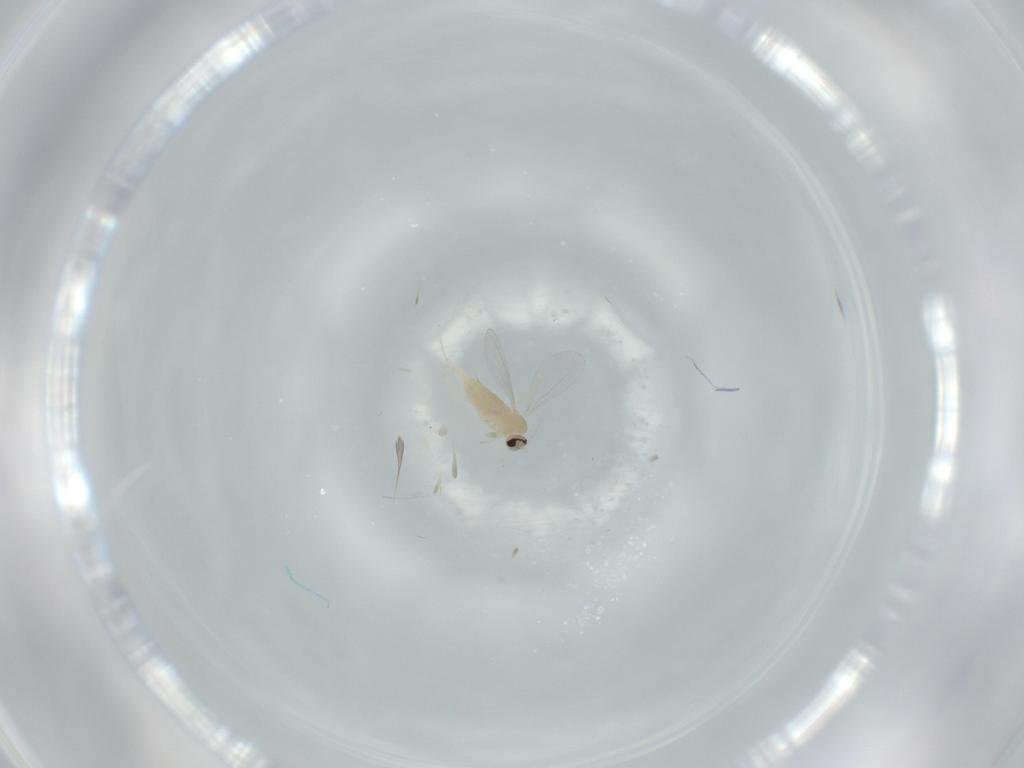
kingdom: Animalia
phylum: Arthropoda
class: Insecta
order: Diptera
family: Cecidomyiidae
